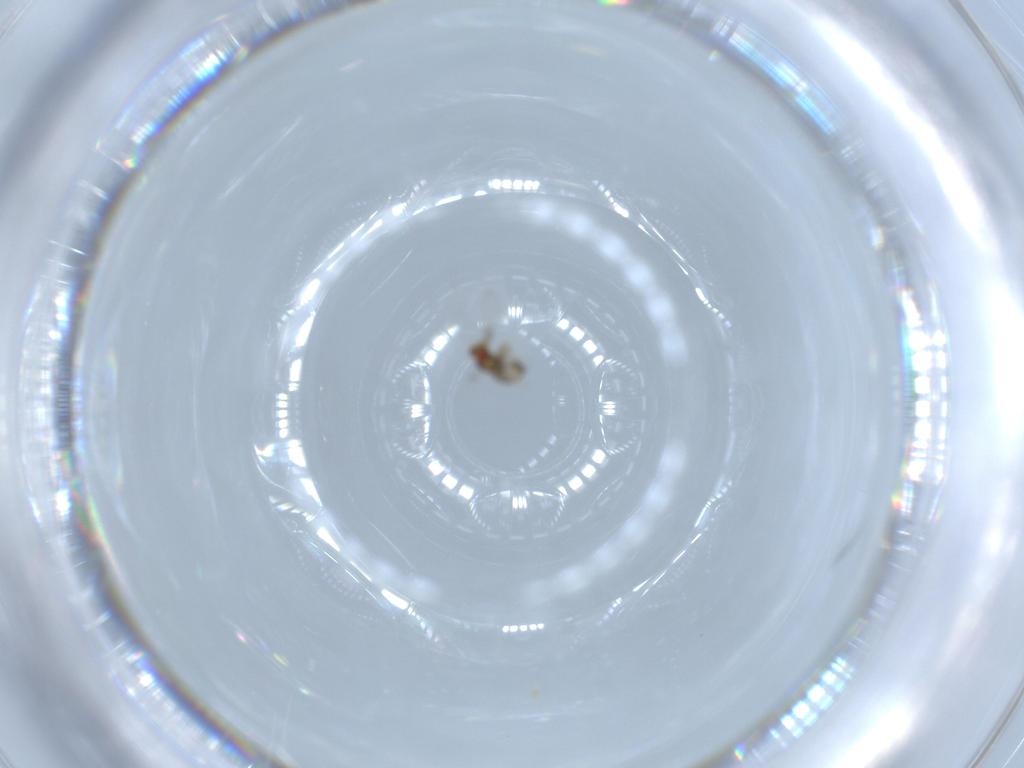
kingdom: Animalia
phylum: Arthropoda
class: Insecta
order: Hymenoptera
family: Trichogrammatidae
